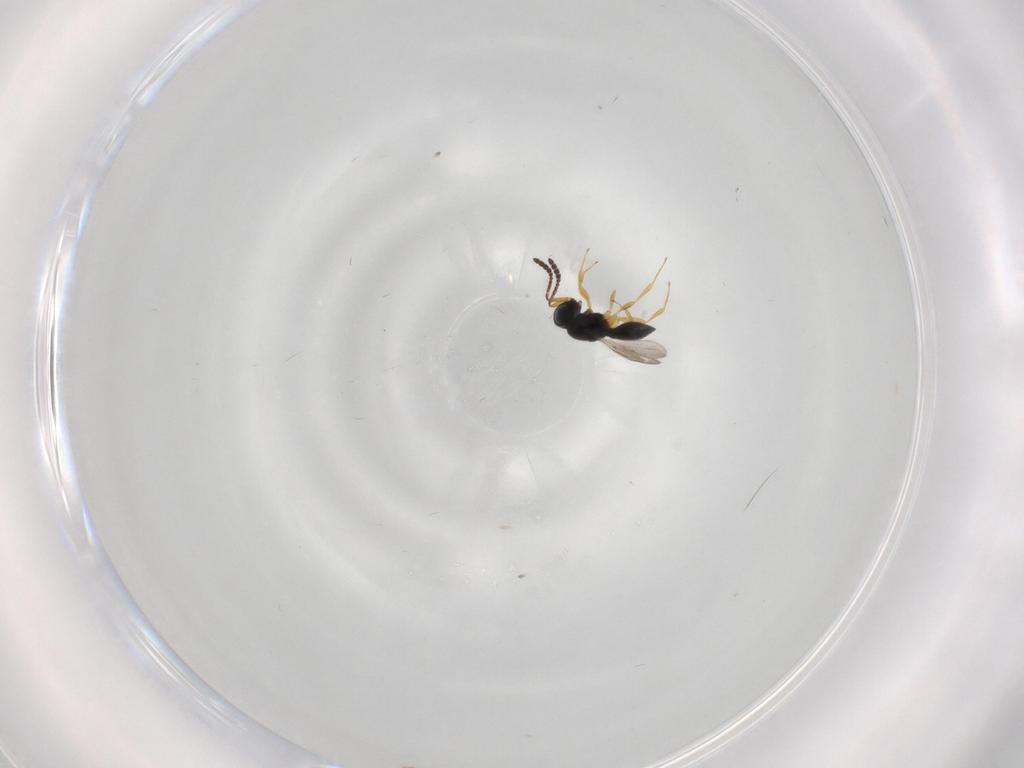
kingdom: Animalia
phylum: Arthropoda
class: Insecta
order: Hymenoptera
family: Scelionidae
